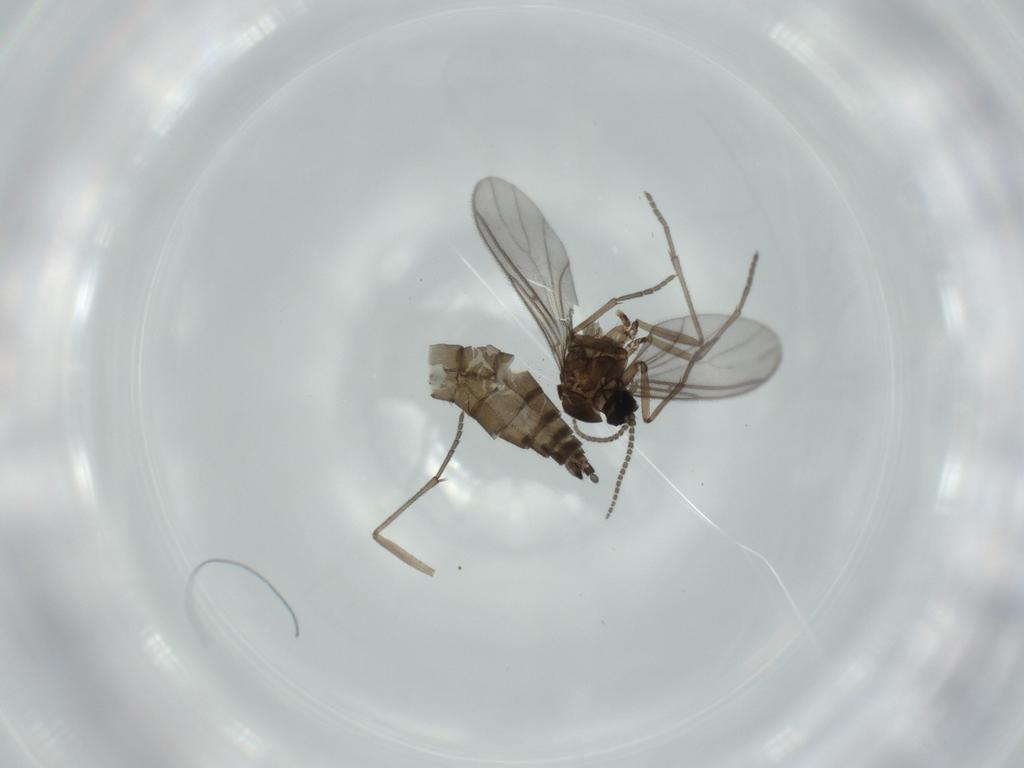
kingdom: Animalia
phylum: Arthropoda
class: Insecta
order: Diptera
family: Sciaridae
